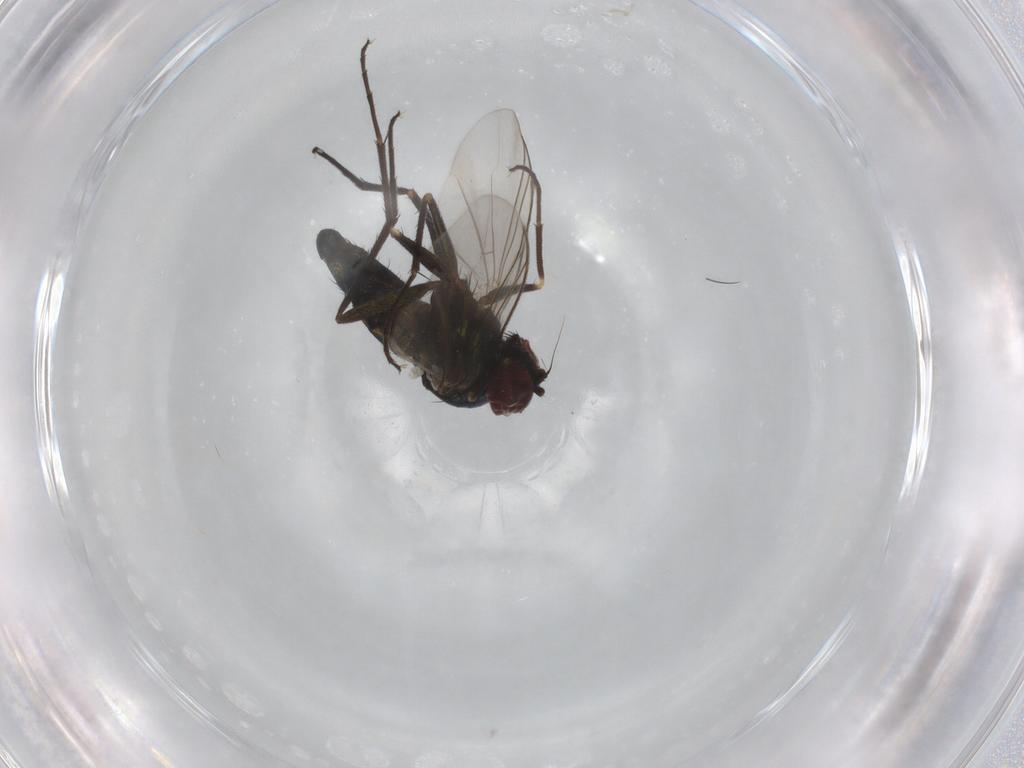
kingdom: Animalia
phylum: Arthropoda
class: Insecta
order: Diptera
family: Dolichopodidae
